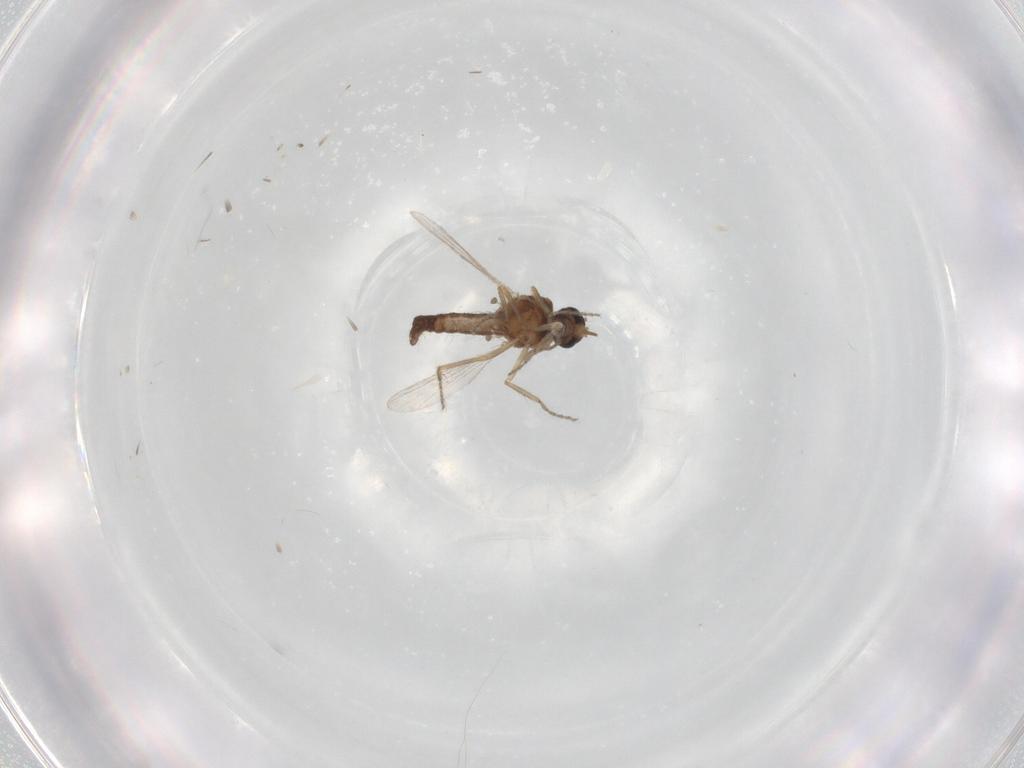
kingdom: Animalia
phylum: Arthropoda
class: Insecta
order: Diptera
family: Ceratopogonidae
